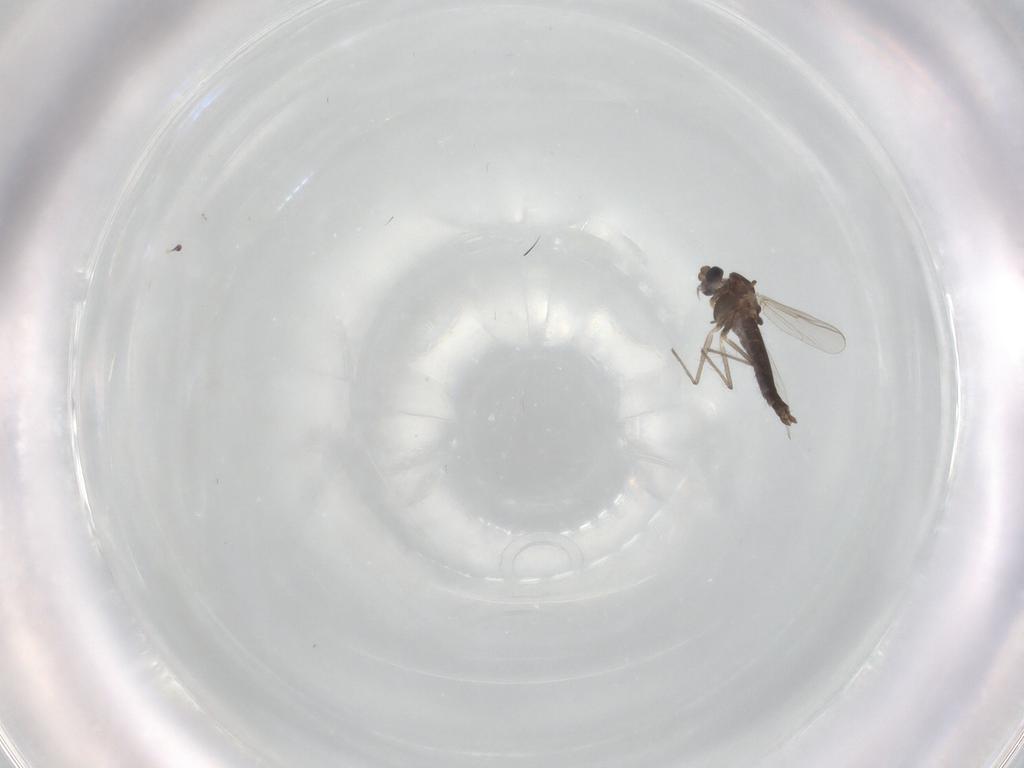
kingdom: Animalia
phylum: Arthropoda
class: Insecta
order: Diptera
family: Chironomidae
